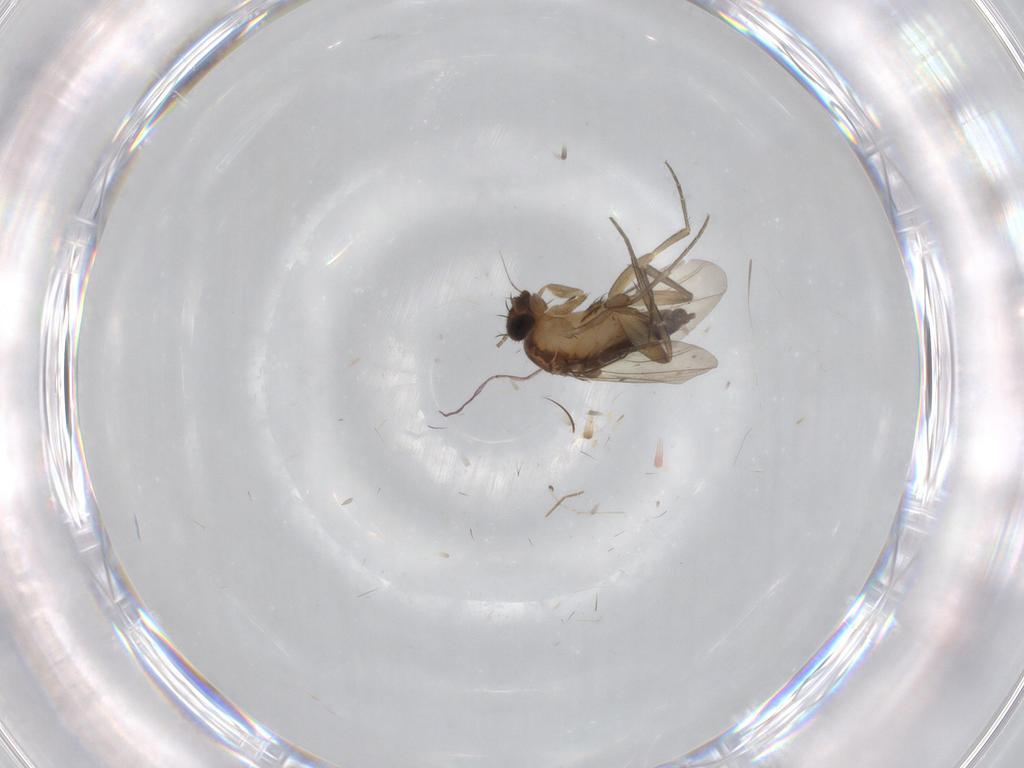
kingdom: Animalia
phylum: Arthropoda
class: Insecta
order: Diptera
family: Phoridae
